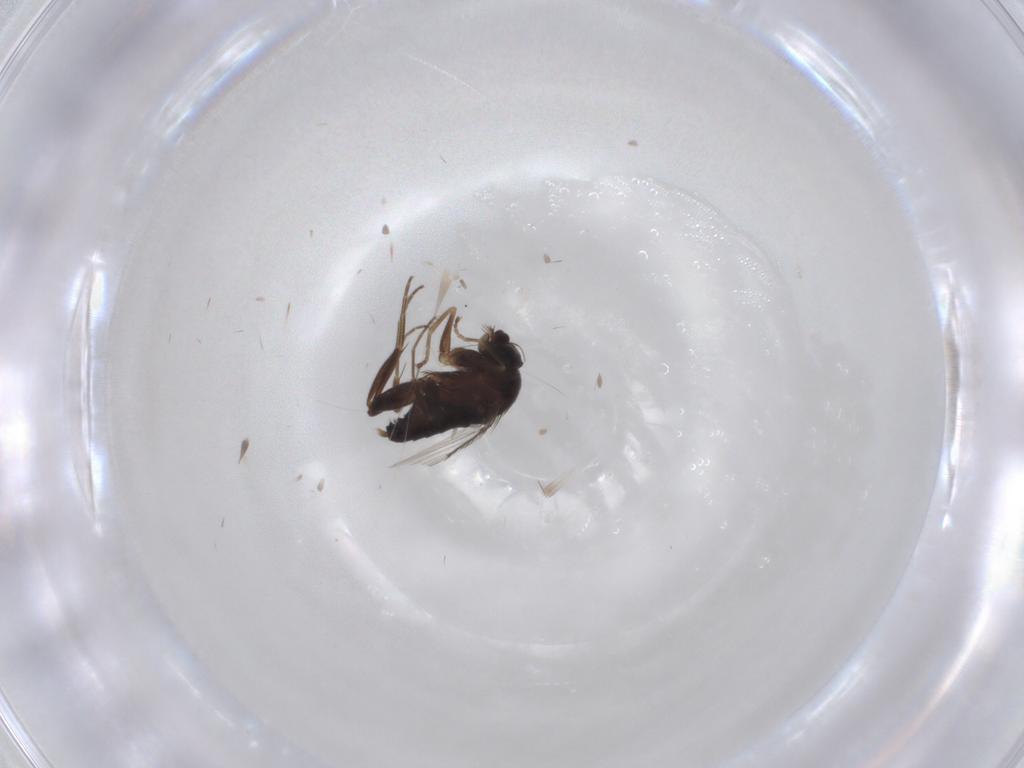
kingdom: Animalia
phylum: Arthropoda
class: Insecta
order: Diptera
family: Phoridae
